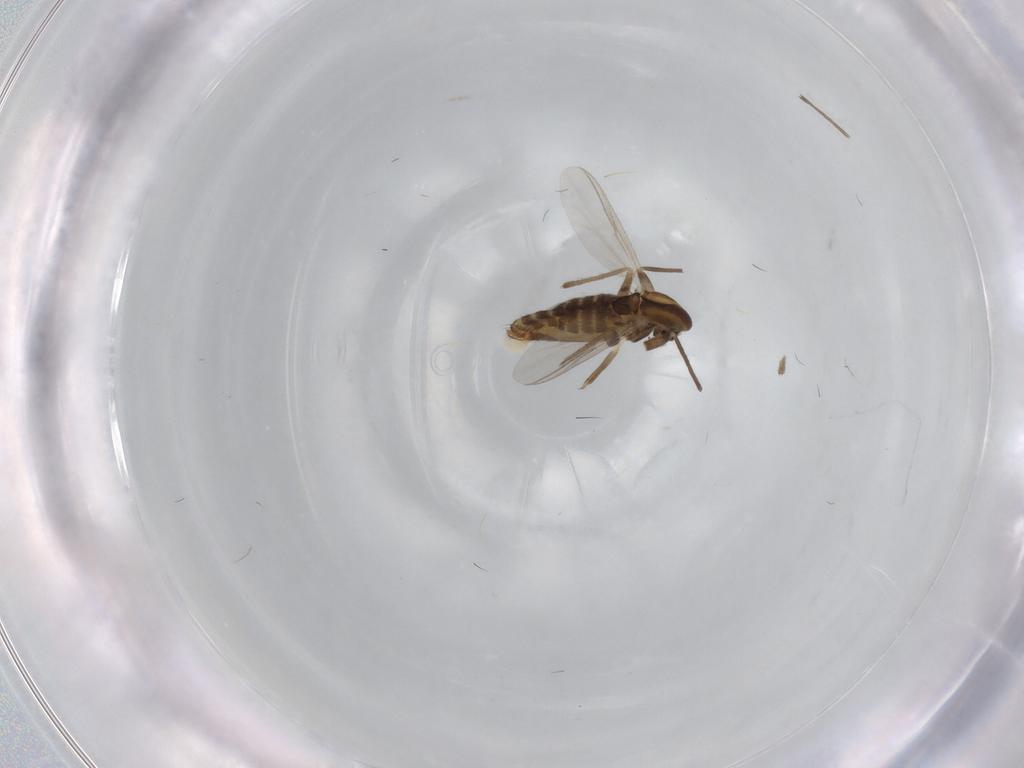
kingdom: Animalia
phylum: Arthropoda
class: Insecta
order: Diptera
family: Chironomidae
